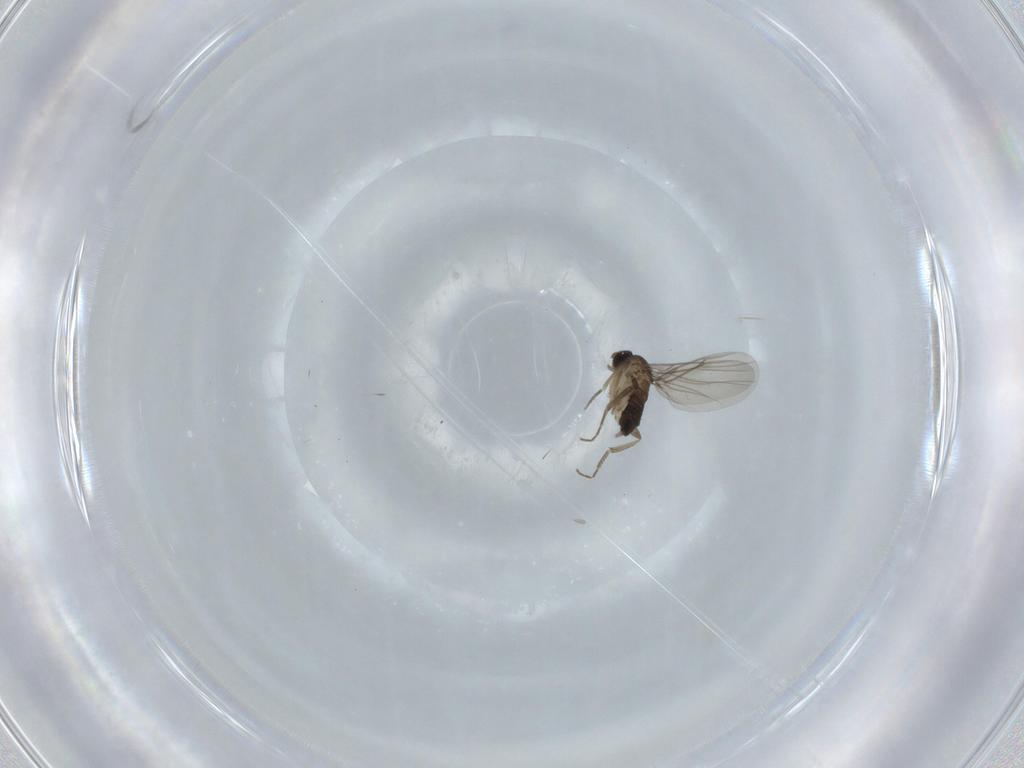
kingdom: Animalia
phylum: Arthropoda
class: Insecta
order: Diptera
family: Phoridae
